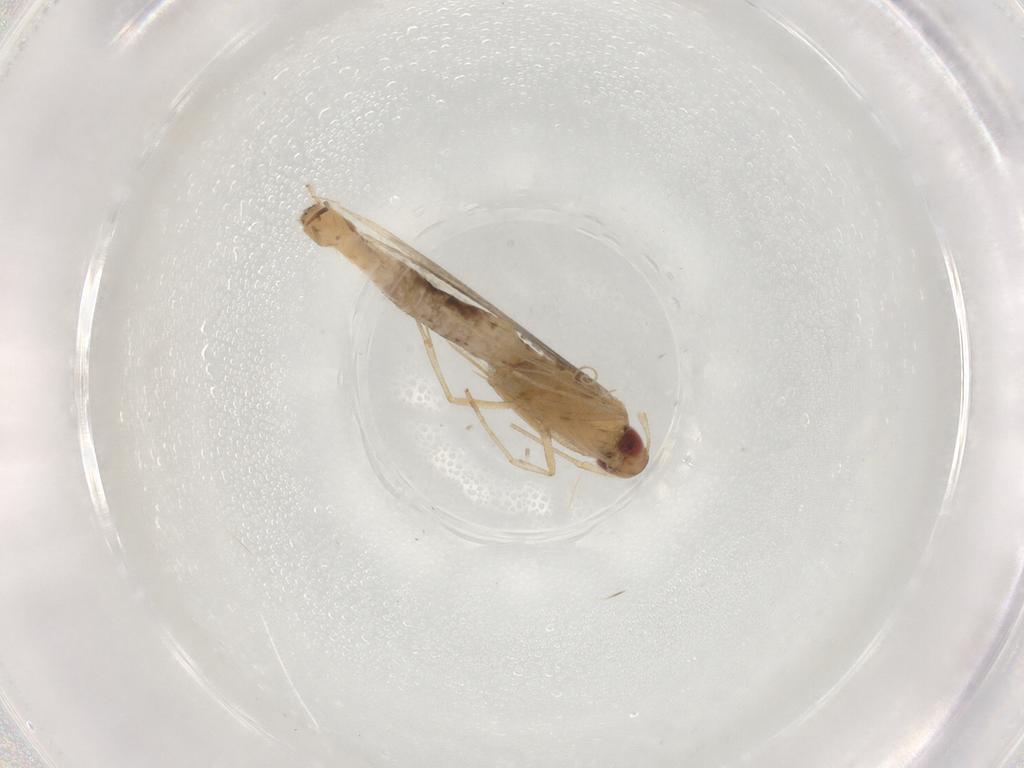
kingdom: Animalia
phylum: Arthropoda
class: Insecta
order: Lepidoptera
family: Cosmopterigidae
